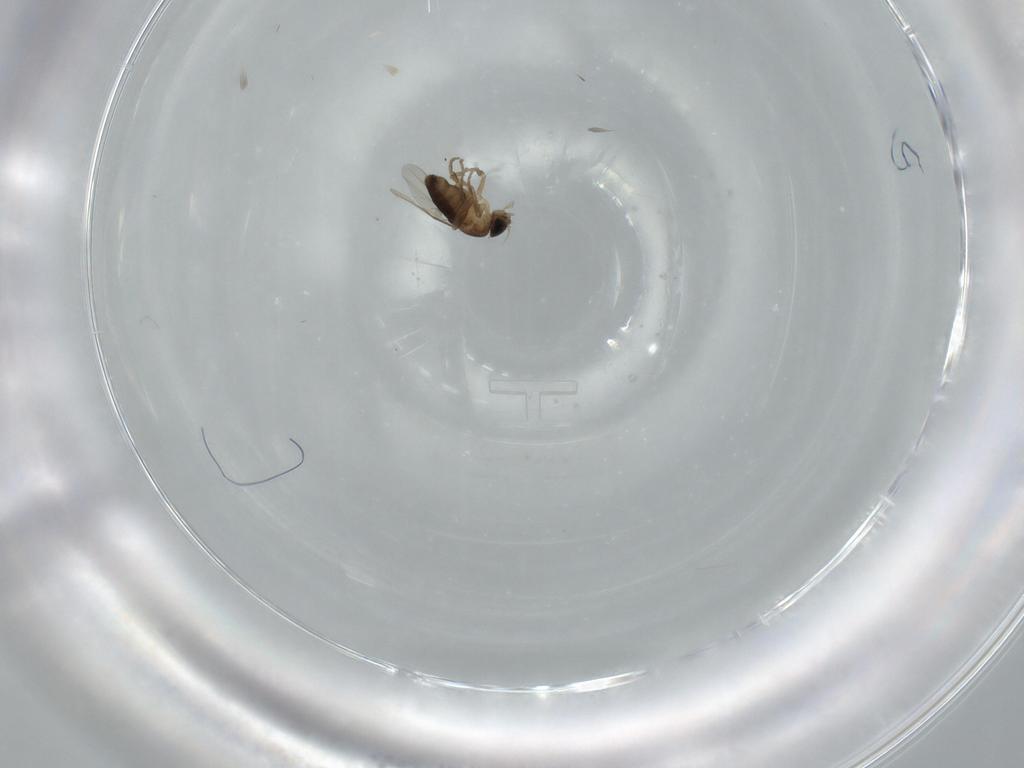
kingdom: Animalia
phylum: Arthropoda
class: Insecta
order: Diptera
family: Phoridae
